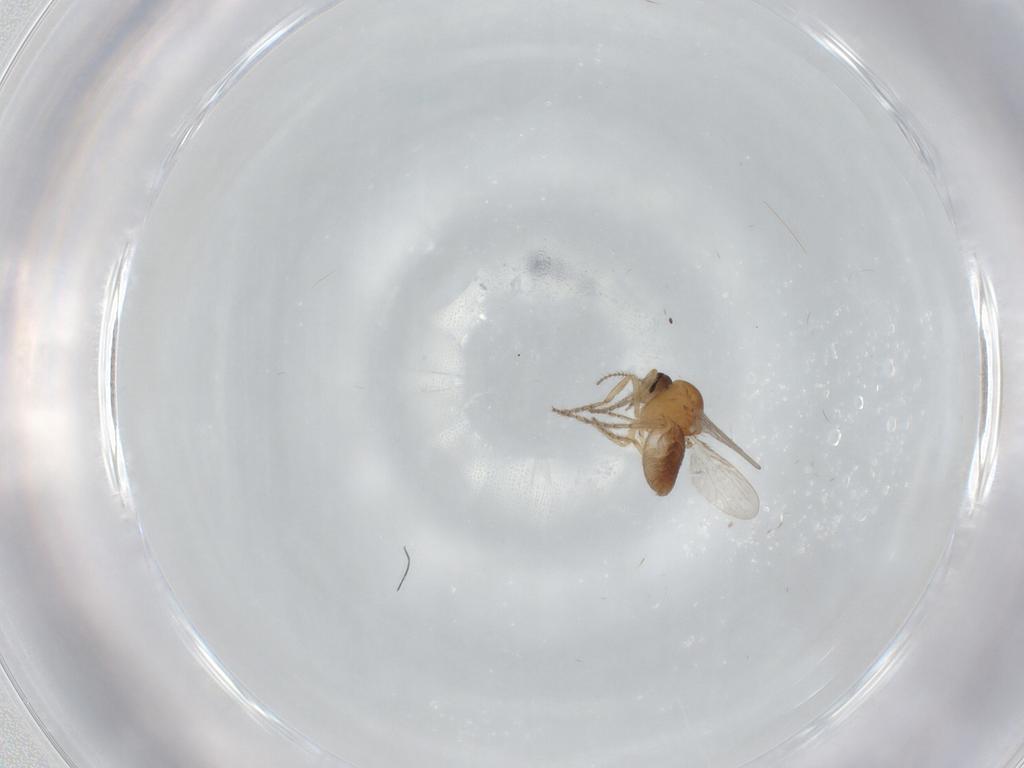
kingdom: Animalia
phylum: Arthropoda
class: Insecta
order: Diptera
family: Ceratopogonidae
